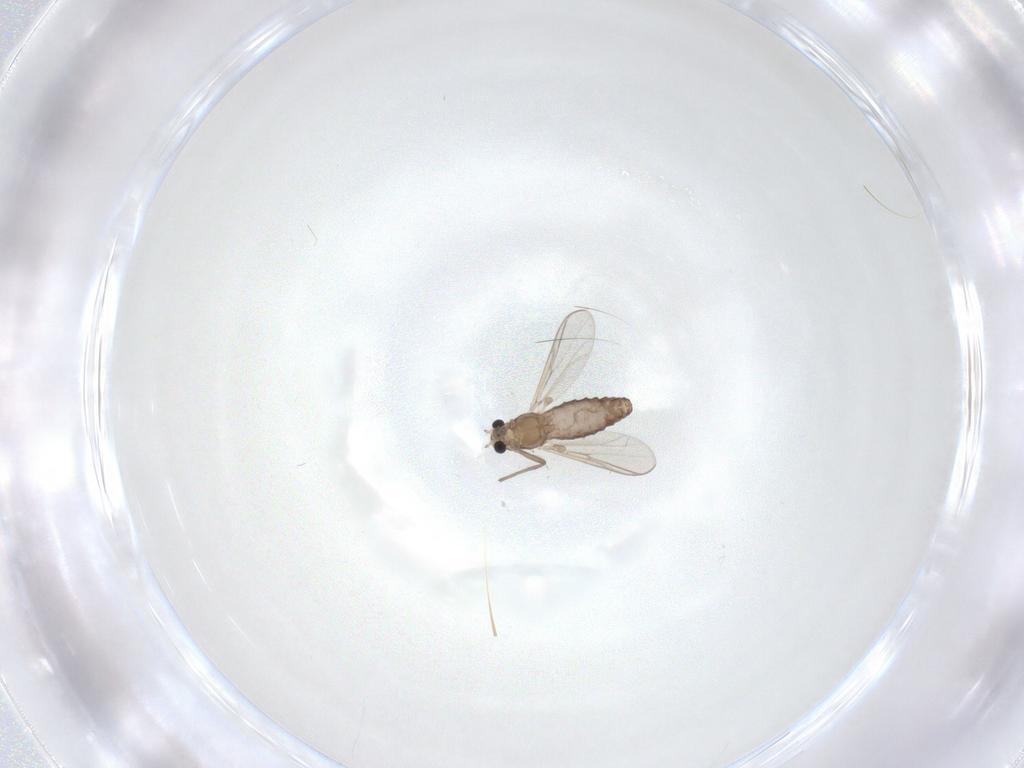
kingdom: Animalia
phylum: Arthropoda
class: Insecta
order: Diptera
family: Chironomidae
